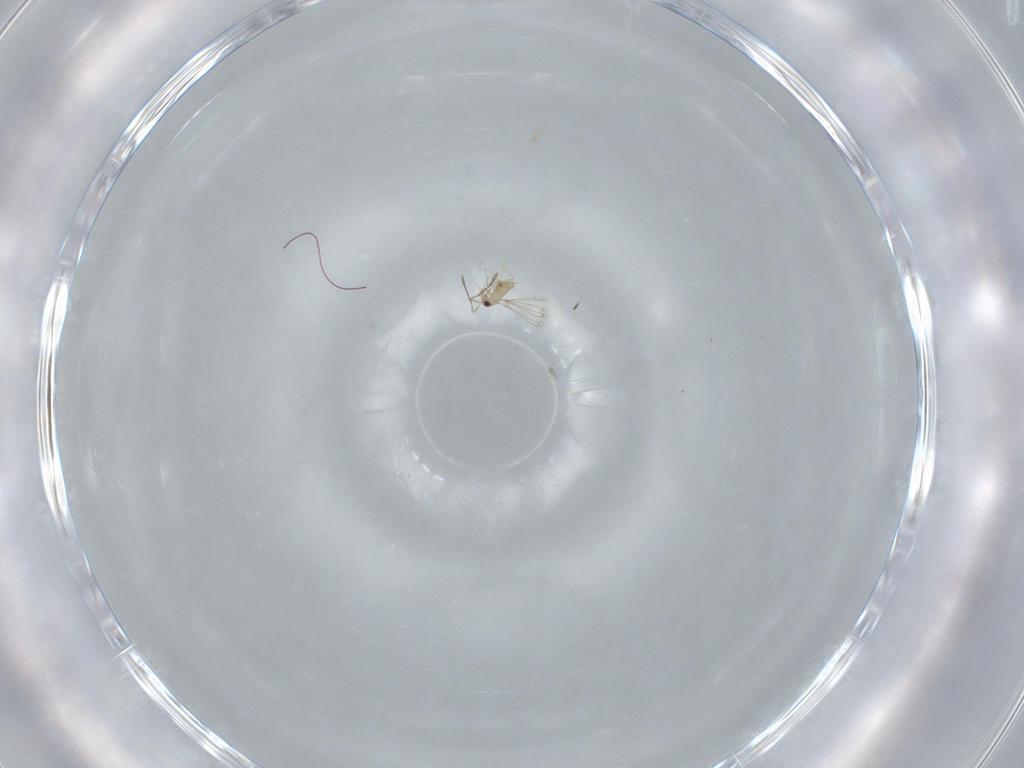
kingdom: Animalia
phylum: Arthropoda
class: Insecta
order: Hymenoptera
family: Mymaridae
